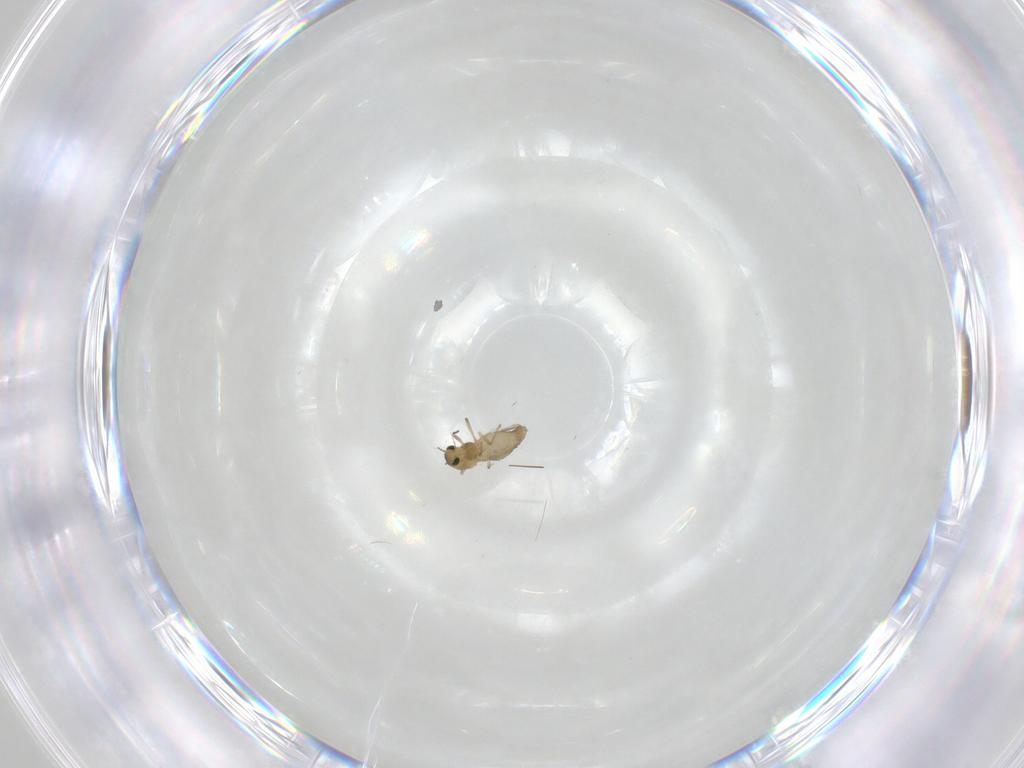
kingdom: Animalia
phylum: Arthropoda
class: Insecta
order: Diptera
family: Chironomidae
